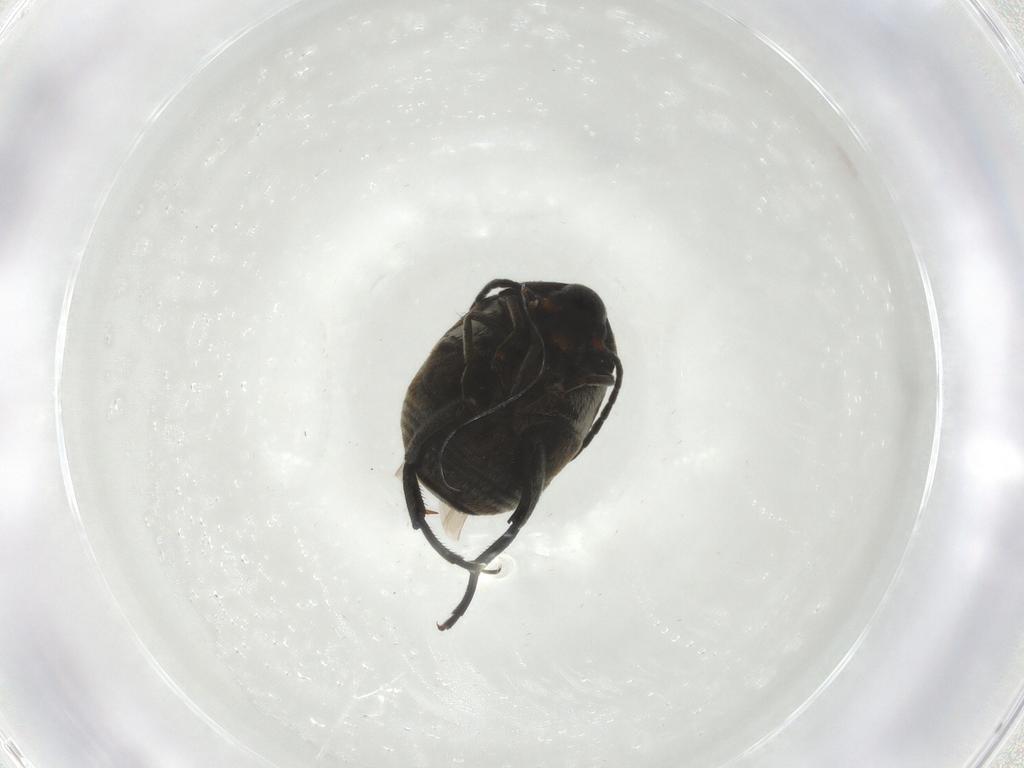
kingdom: Animalia
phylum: Arthropoda
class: Insecta
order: Coleoptera
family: Chrysomelidae
